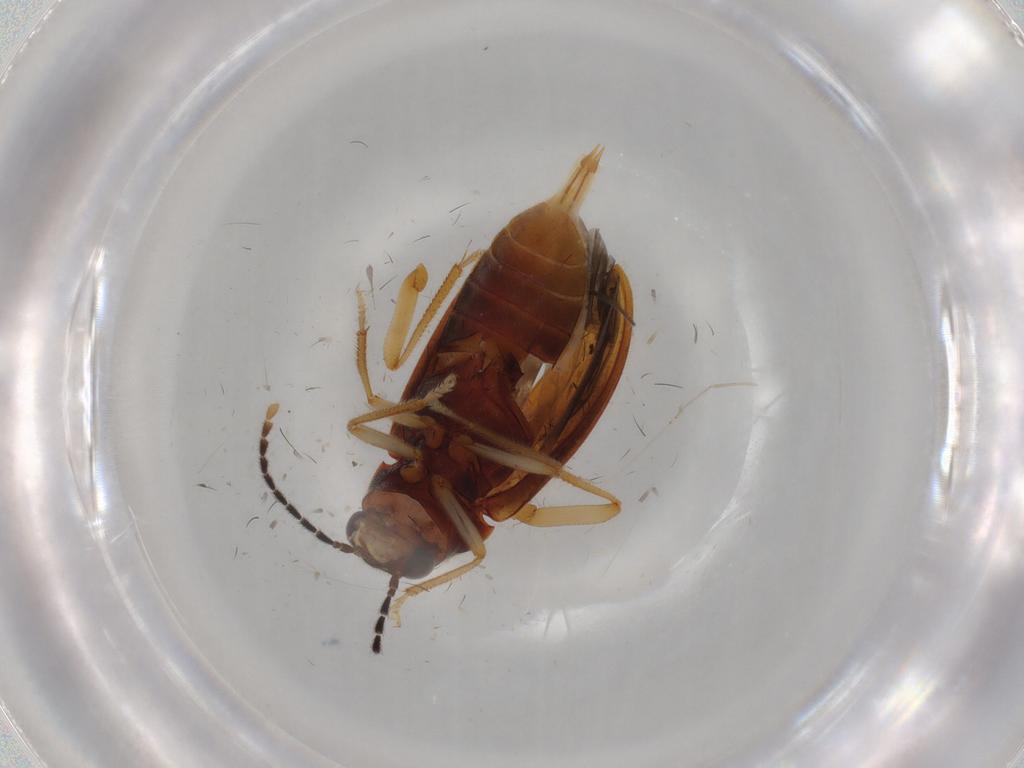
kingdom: Animalia
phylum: Arthropoda
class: Insecta
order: Coleoptera
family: Ptilodactylidae
